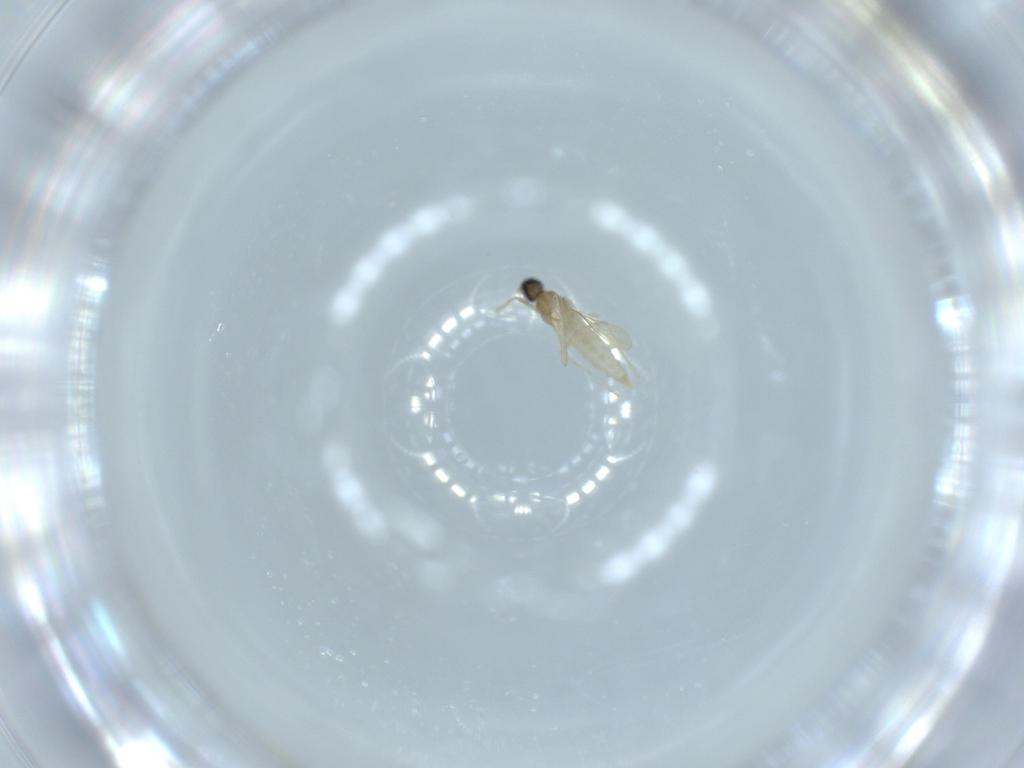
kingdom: Animalia
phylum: Arthropoda
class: Insecta
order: Diptera
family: Cecidomyiidae
